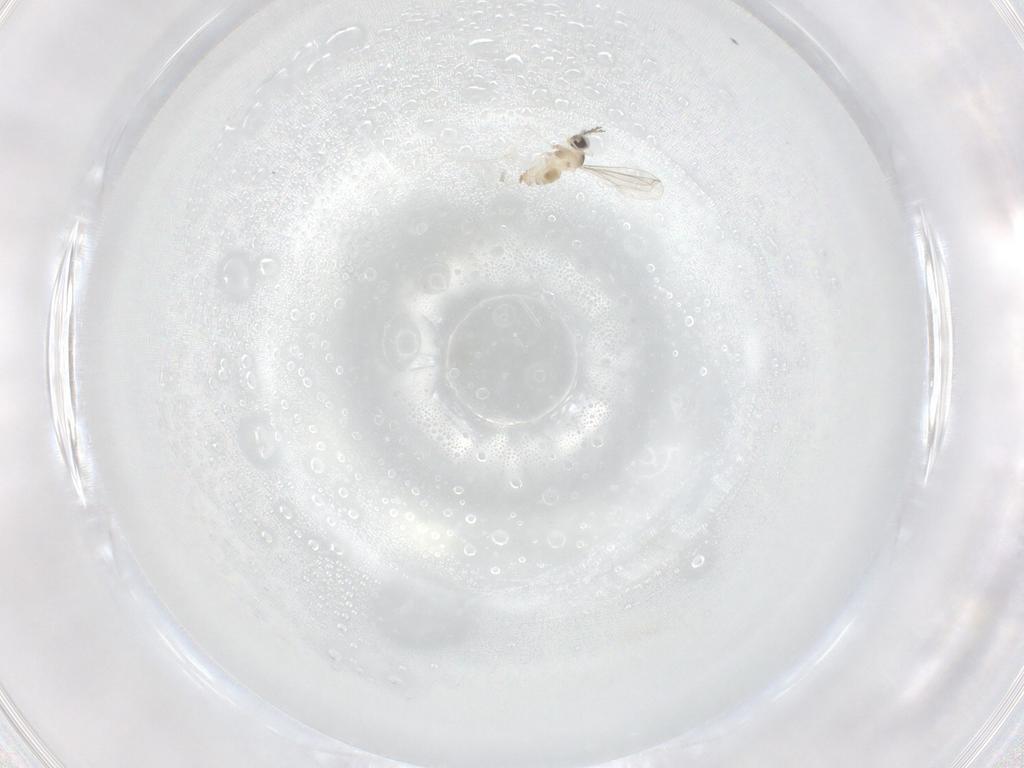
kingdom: Animalia
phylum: Arthropoda
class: Insecta
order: Diptera
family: Cecidomyiidae
